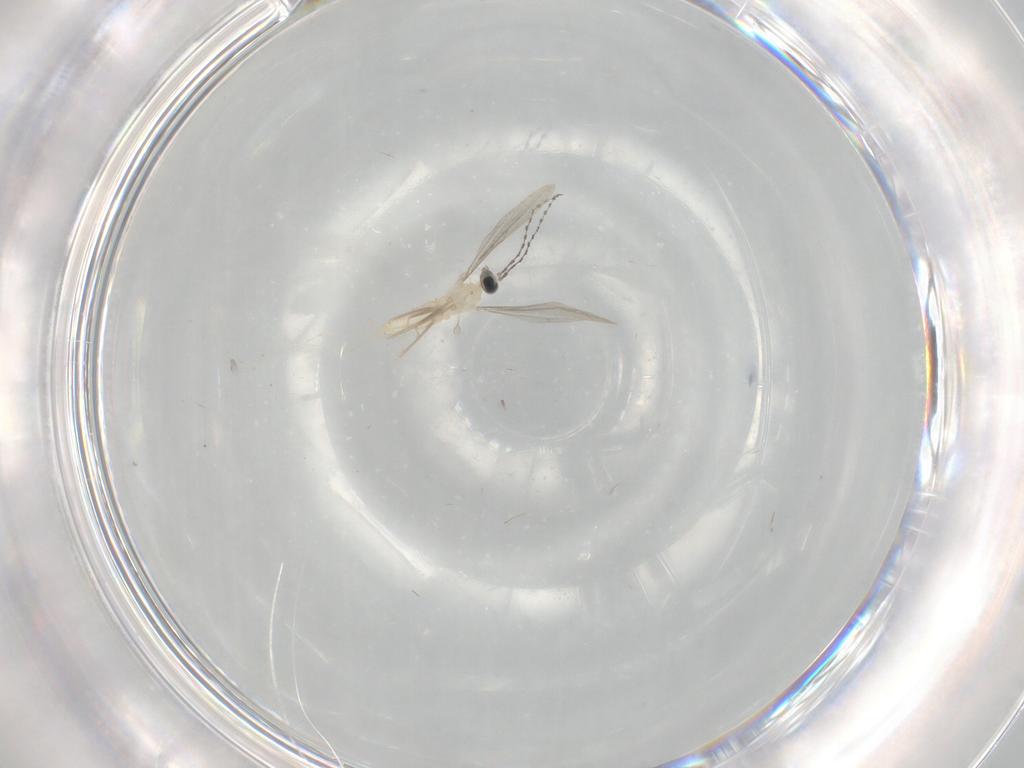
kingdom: Animalia
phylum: Arthropoda
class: Insecta
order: Diptera
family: Cecidomyiidae
